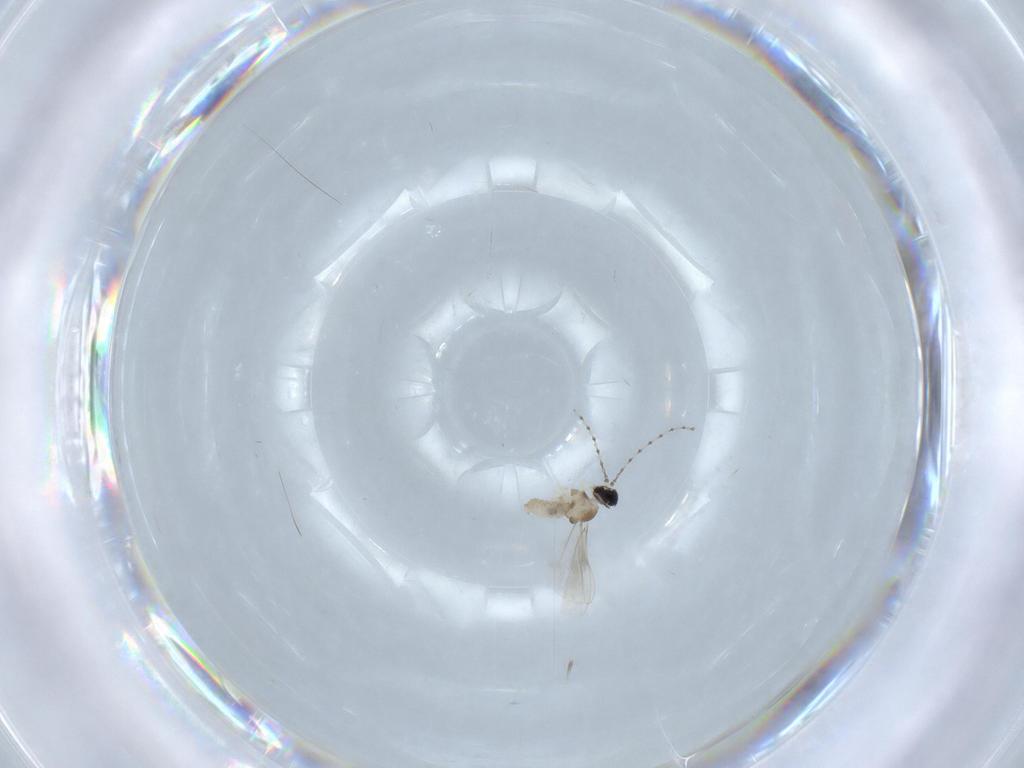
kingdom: Animalia
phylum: Arthropoda
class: Insecta
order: Diptera
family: Cecidomyiidae
